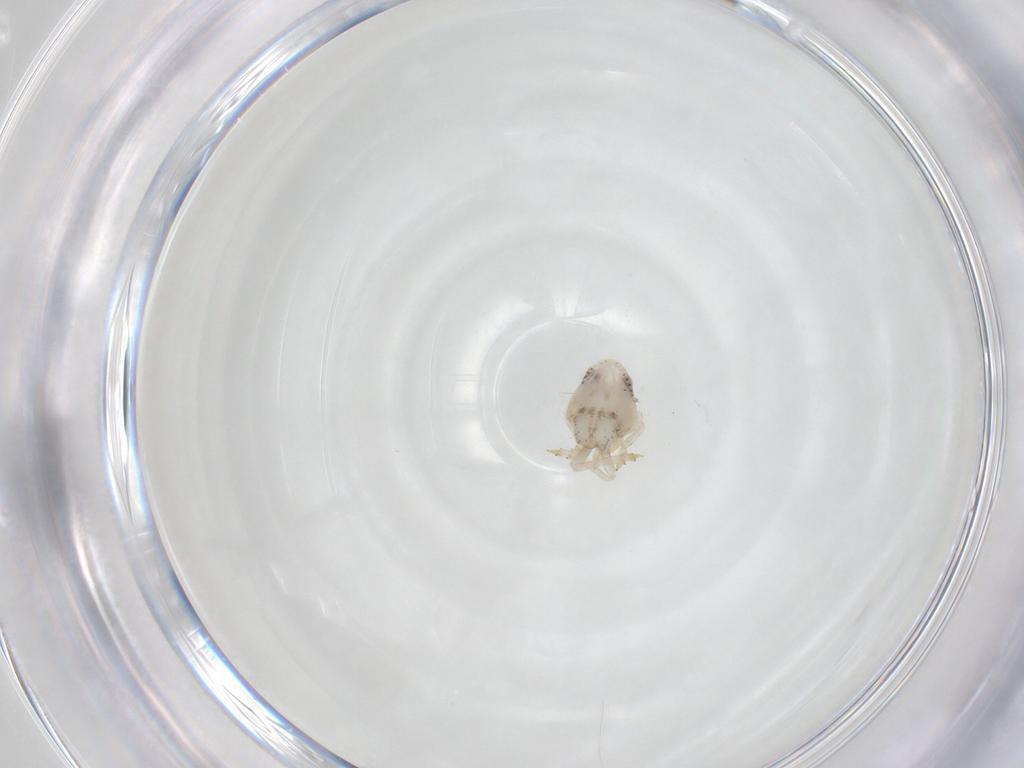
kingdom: Animalia
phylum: Arthropoda
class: Insecta
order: Hemiptera
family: Acanaloniidae
